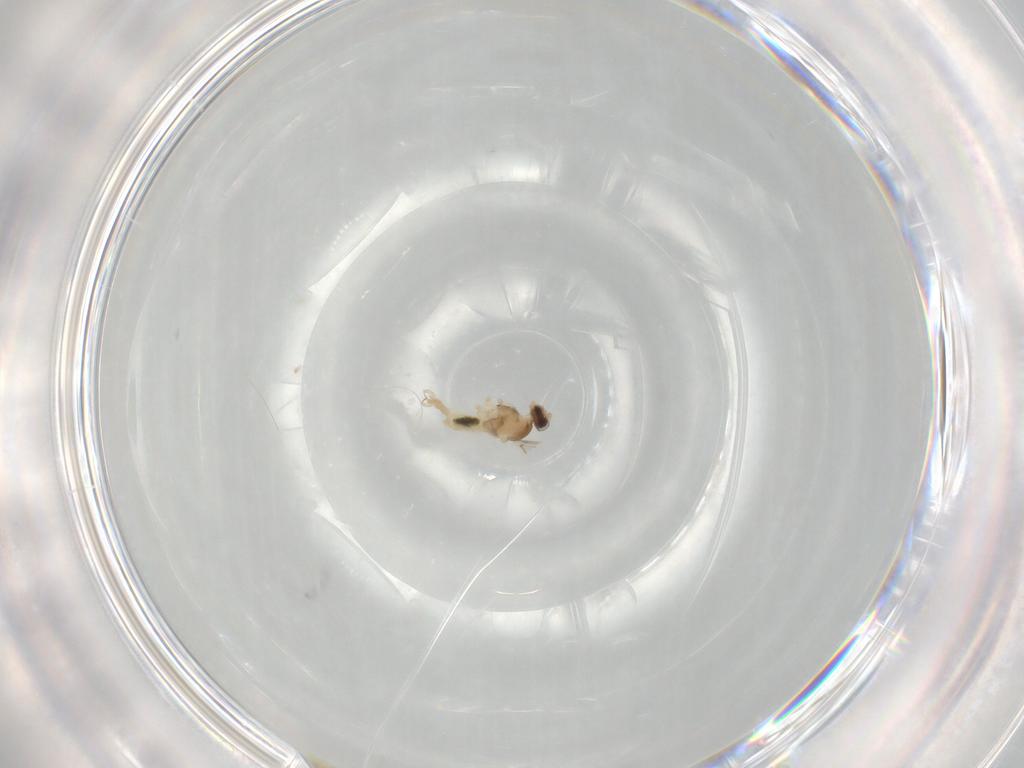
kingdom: Animalia
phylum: Arthropoda
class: Insecta
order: Diptera
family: Cecidomyiidae
